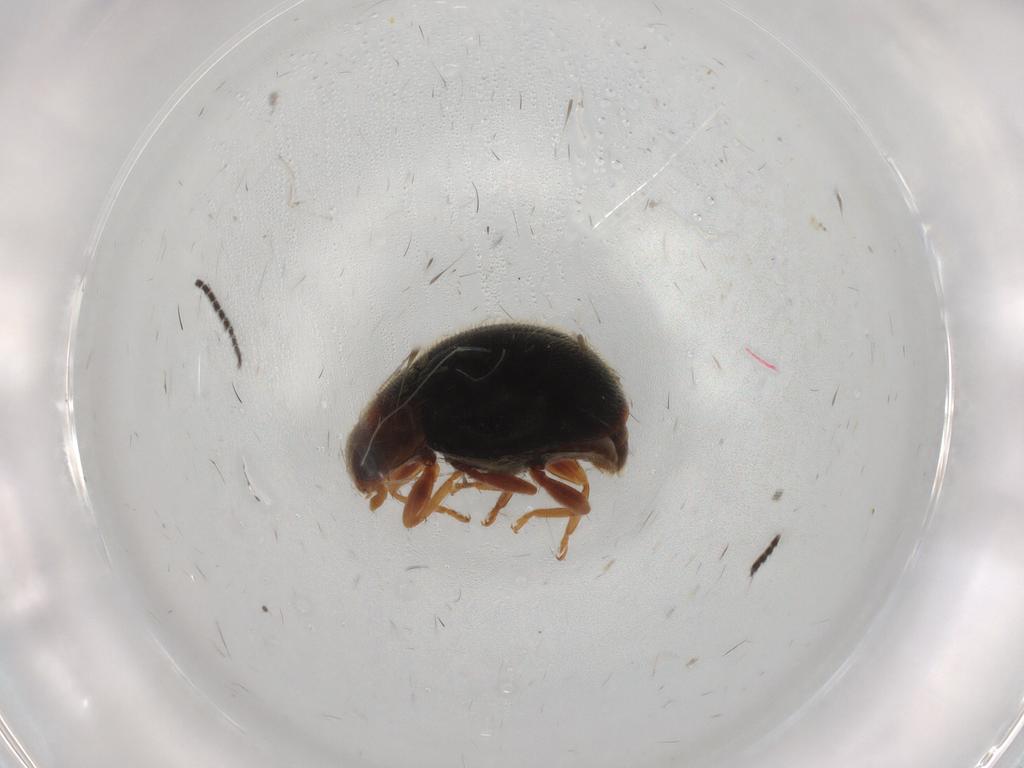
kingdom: Animalia
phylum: Arthropoda
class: Insecta
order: Coleoptera
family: Coccinellidae
